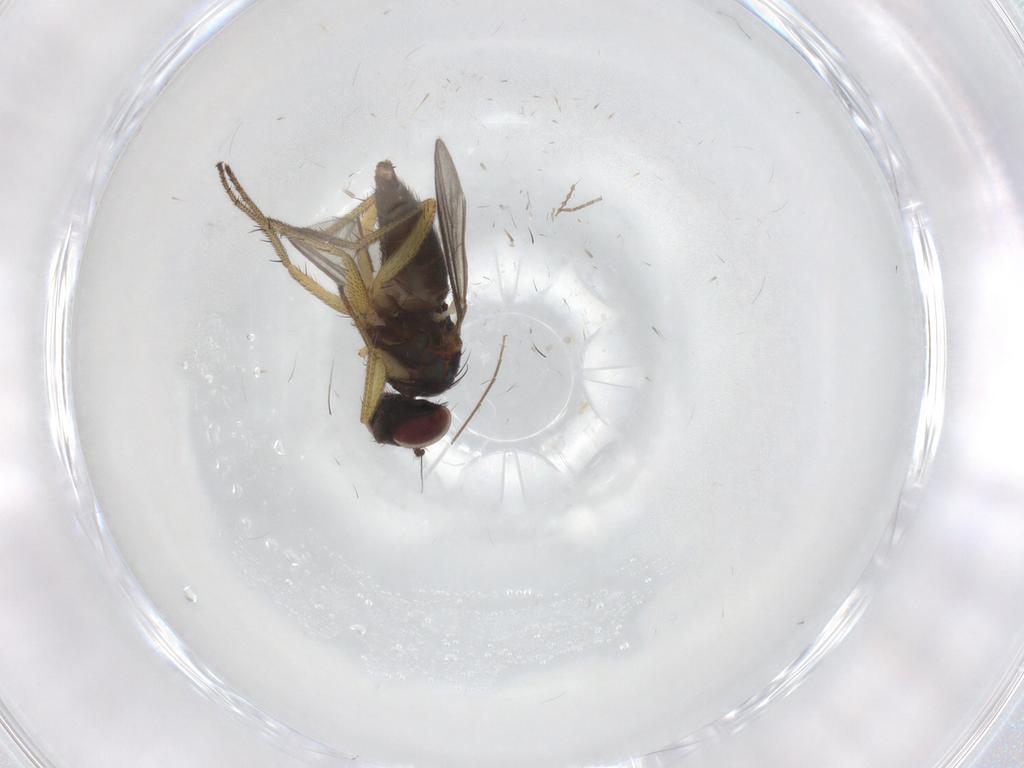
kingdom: Animalia
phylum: Arthropoda
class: Insecta
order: Diptera
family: Dolichopodidae
